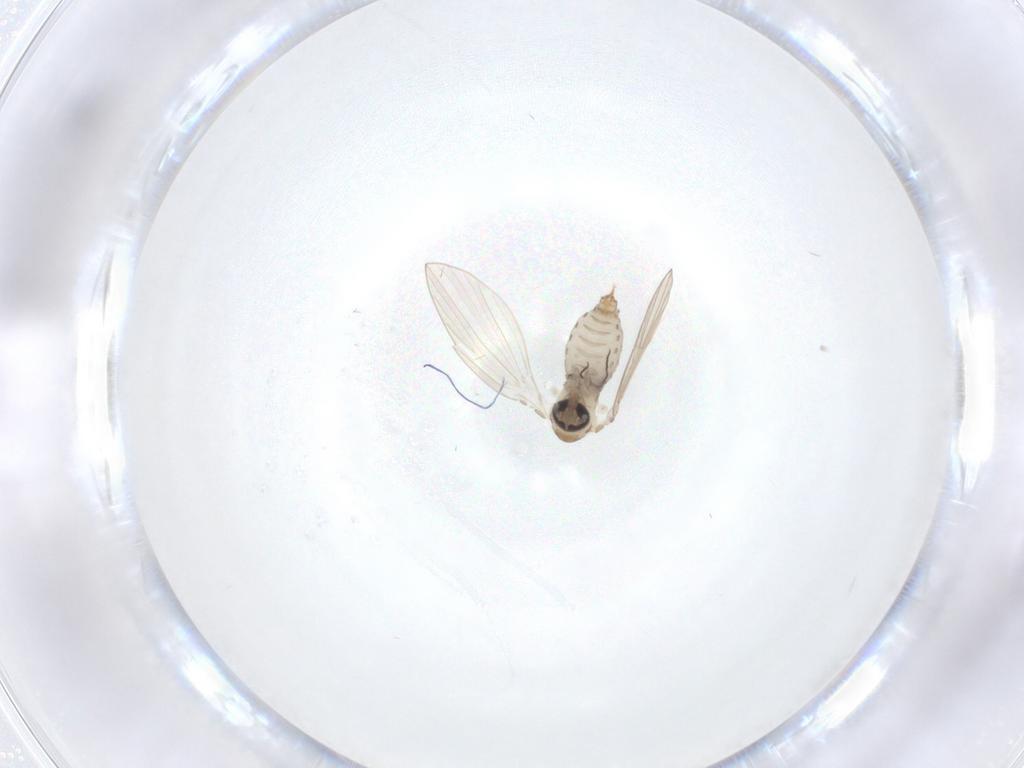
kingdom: Animalia
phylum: Arthropoda
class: Insecta
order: Diptera
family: Psychodidae
